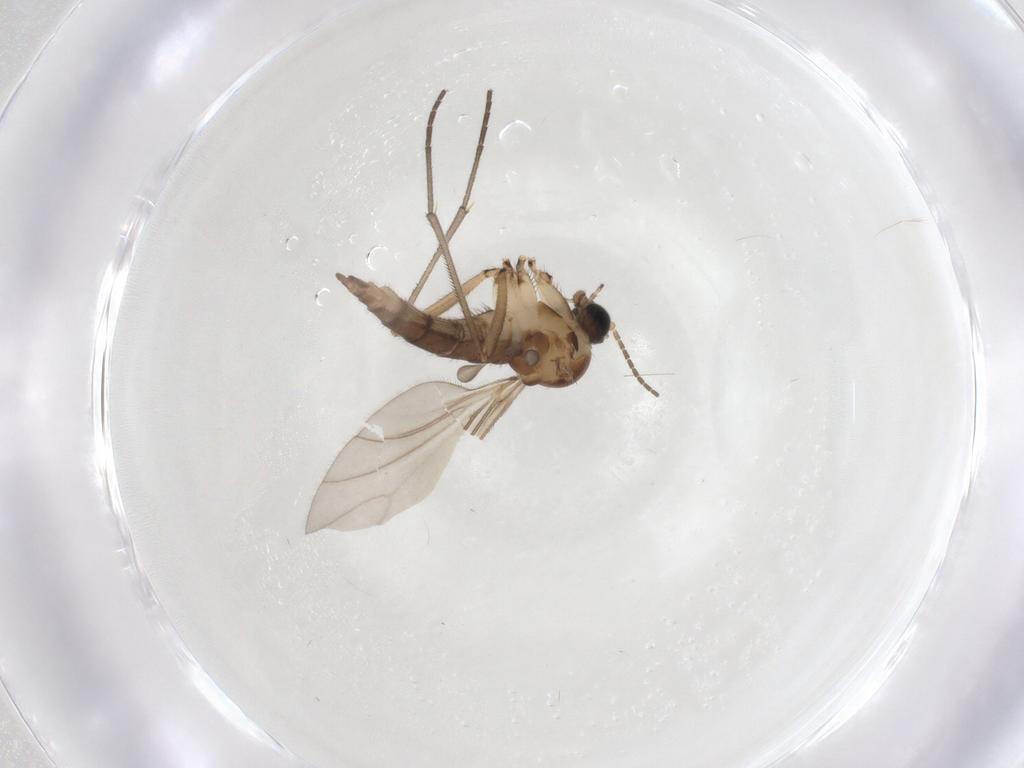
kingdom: Animalia
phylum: Arthropoda
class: Insecta
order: Diptera
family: Sciaridae
